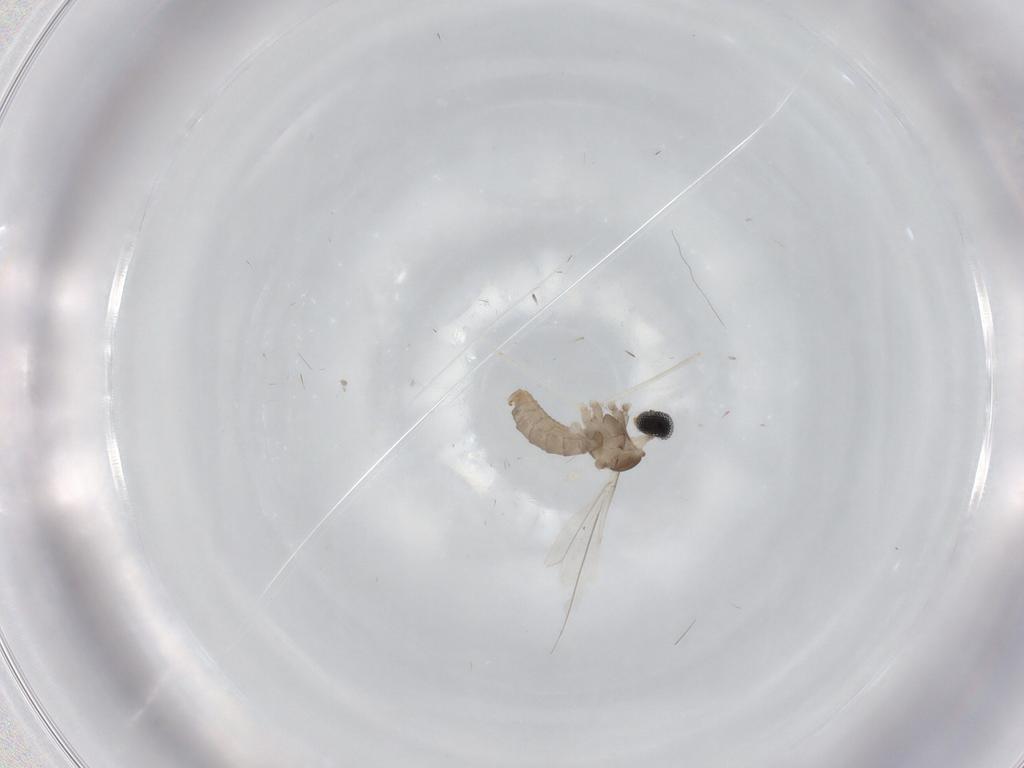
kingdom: Animalia
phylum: Arthropoda
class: Insecta
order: Diptera
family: Cecidomyiidae
